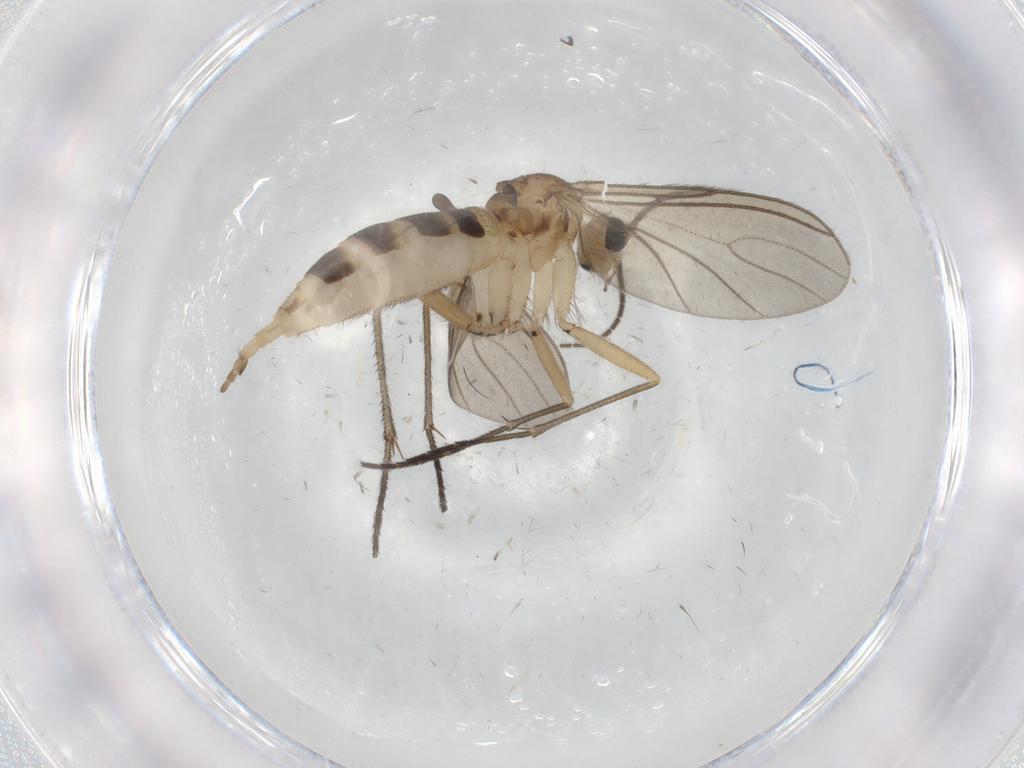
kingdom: Animalia
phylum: Arthropoda
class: Insecta
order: Diptera
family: Sciaridae
